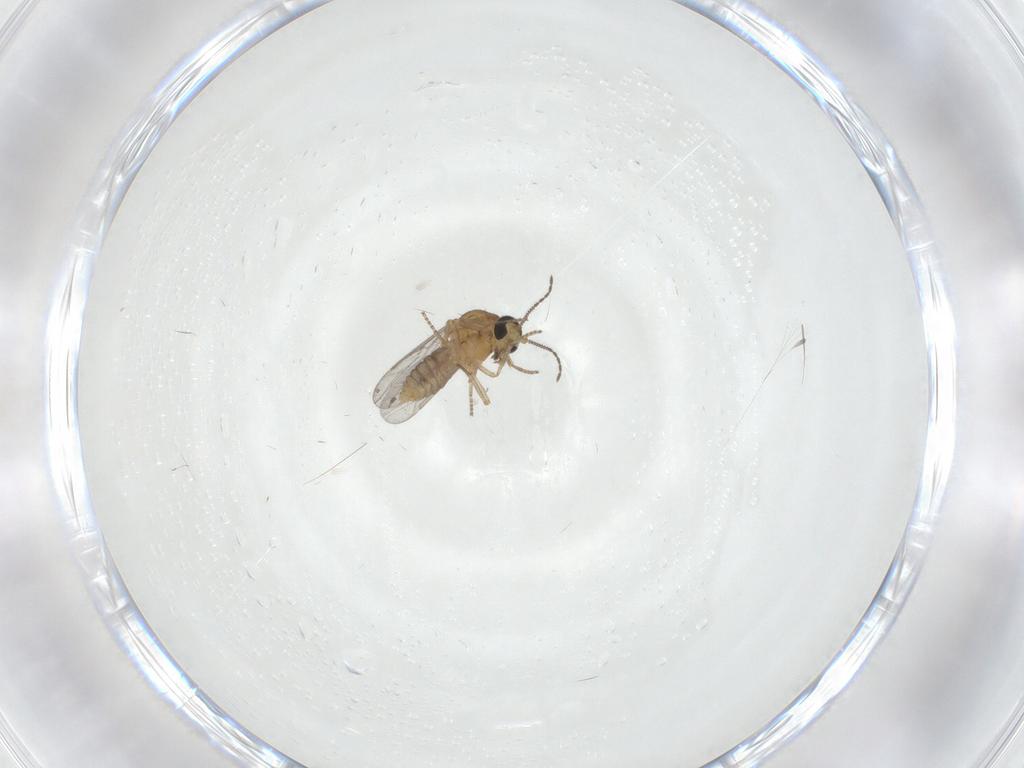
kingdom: Animalia
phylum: Arthropoda
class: Insecta
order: Diptera
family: Ceratopogonidae
